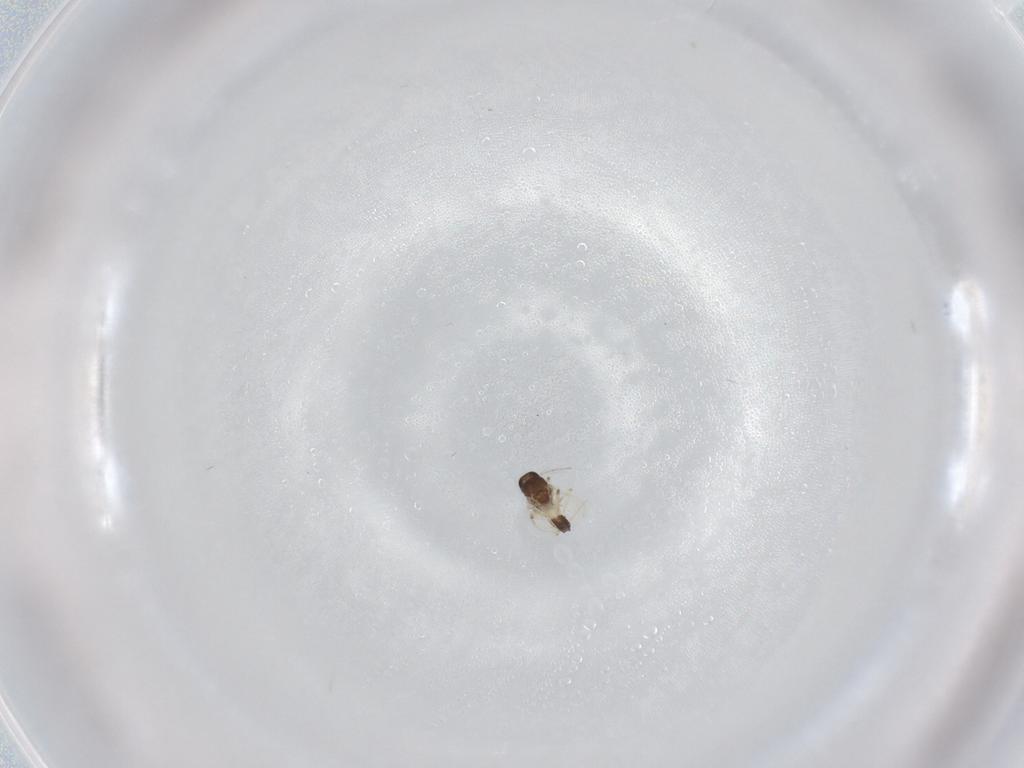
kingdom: Animalia
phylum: Arthropoda
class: Insecta
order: Diptera
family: Ceratopogonidae
